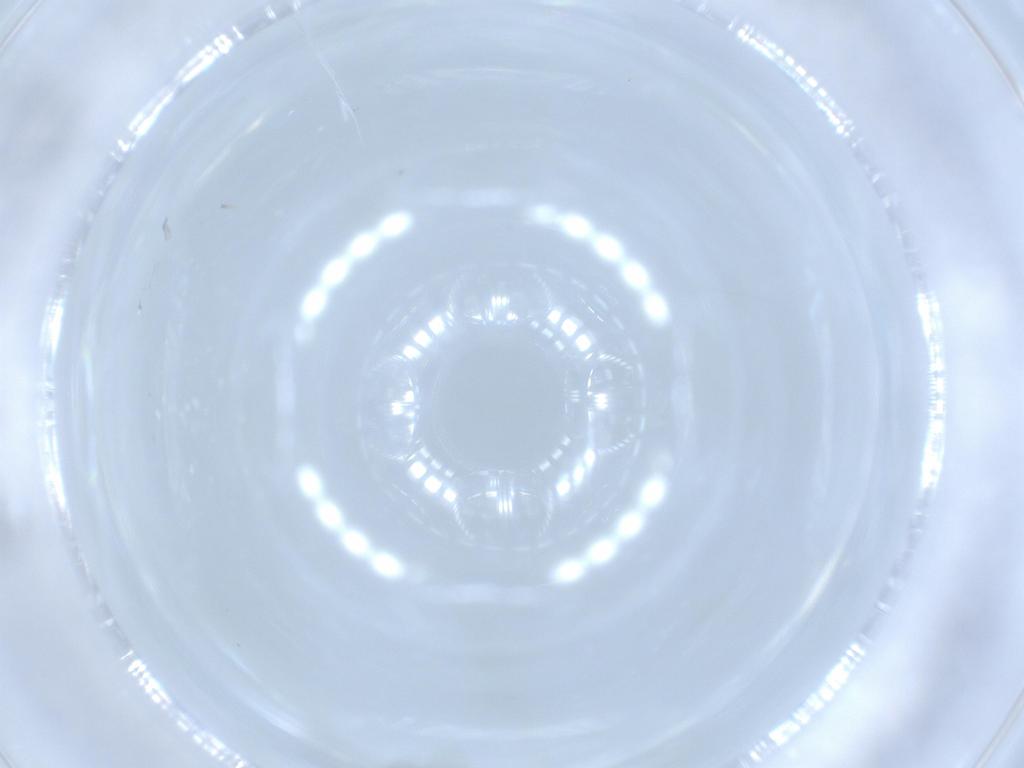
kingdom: Animalia
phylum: Arthropoda
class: Insecta
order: Diptera
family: Sciaridae
